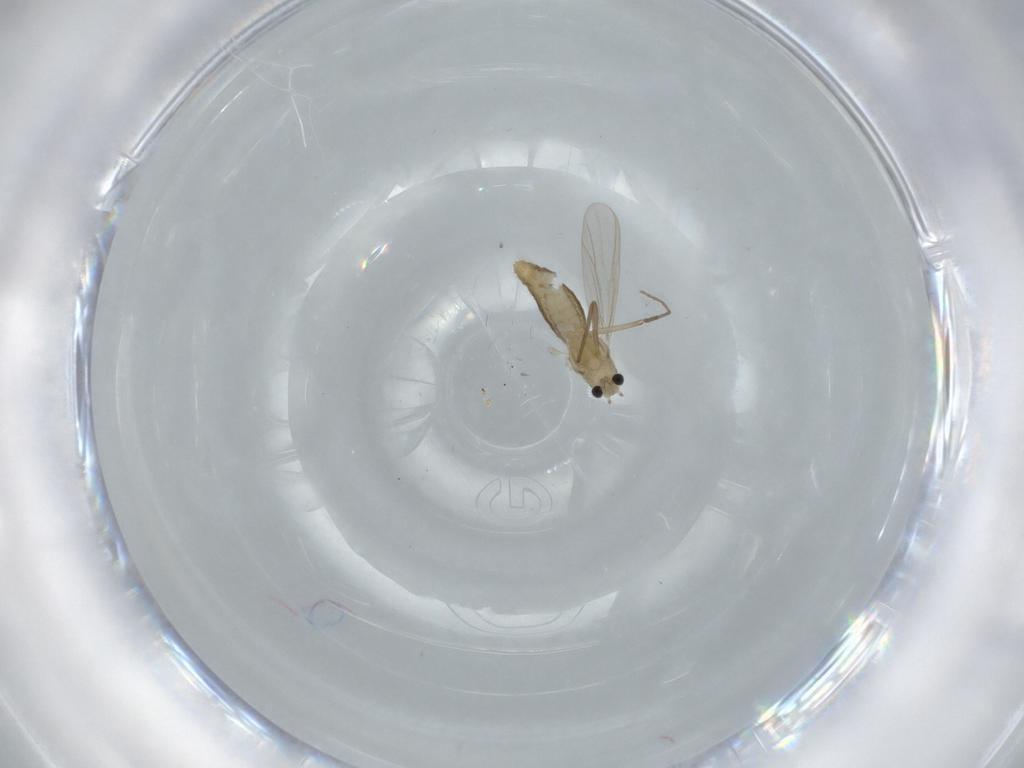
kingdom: Animalia
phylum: Arthropoda
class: Insecta
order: Diptera
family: Chironomidae
